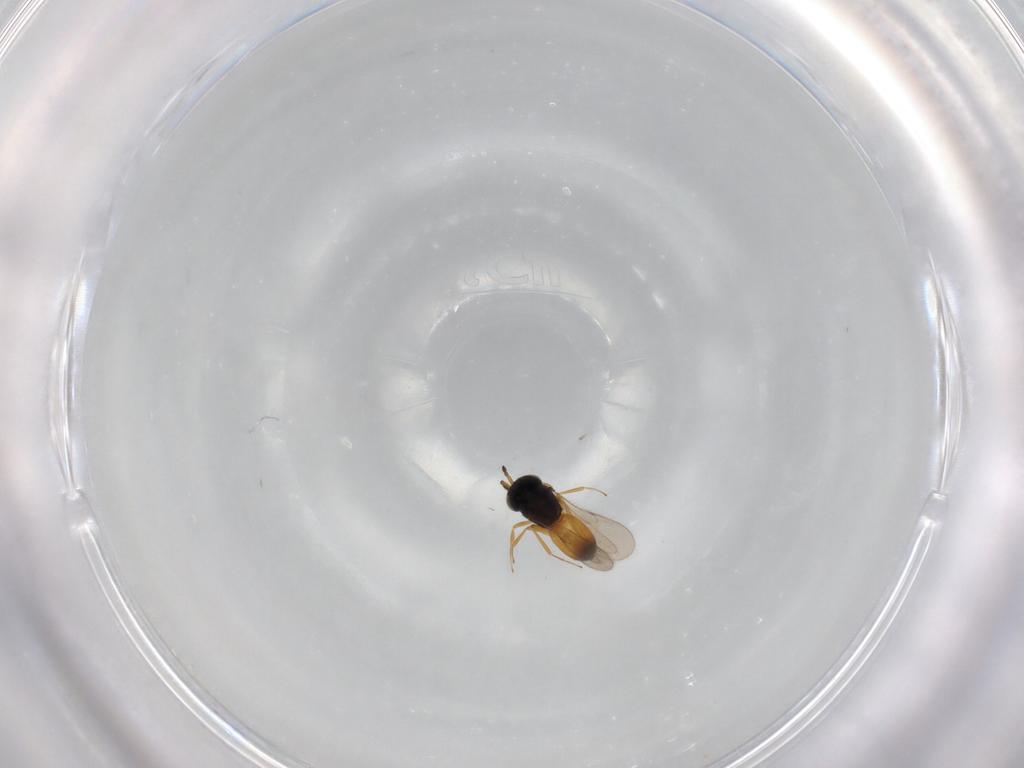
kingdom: Animalia
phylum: Arthropoda
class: Insecta
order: Hymenoptera
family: Scelionidae
